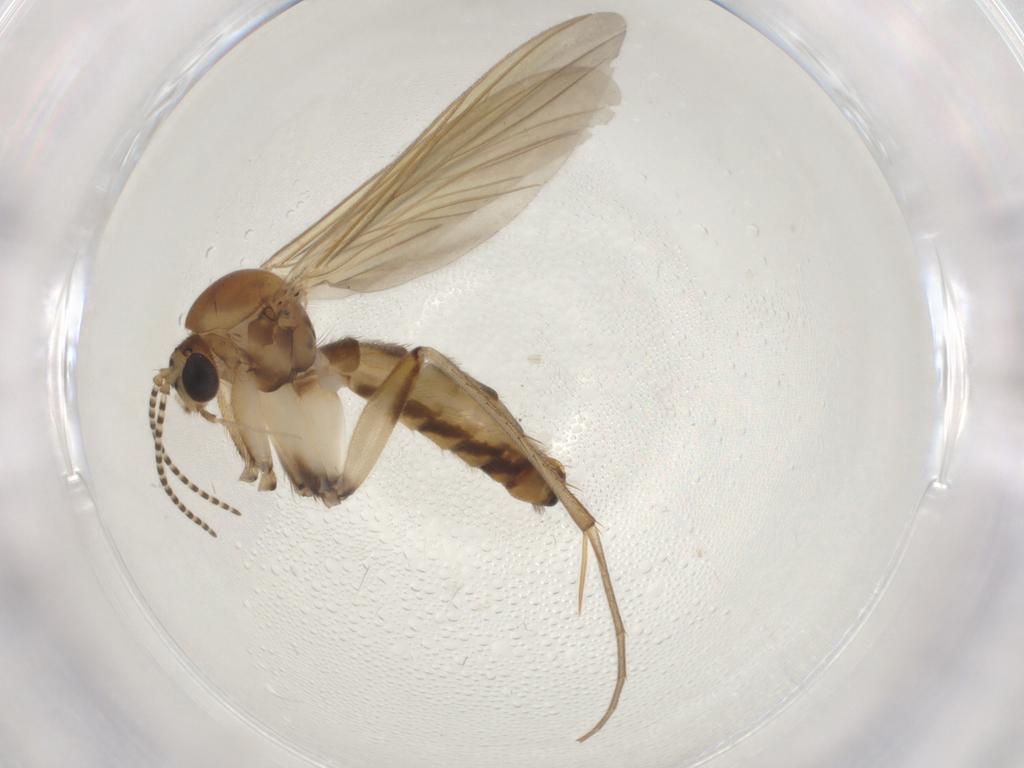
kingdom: Animalia
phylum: Arthropoda
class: Insecta
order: Diptera
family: Mycetophilidae
